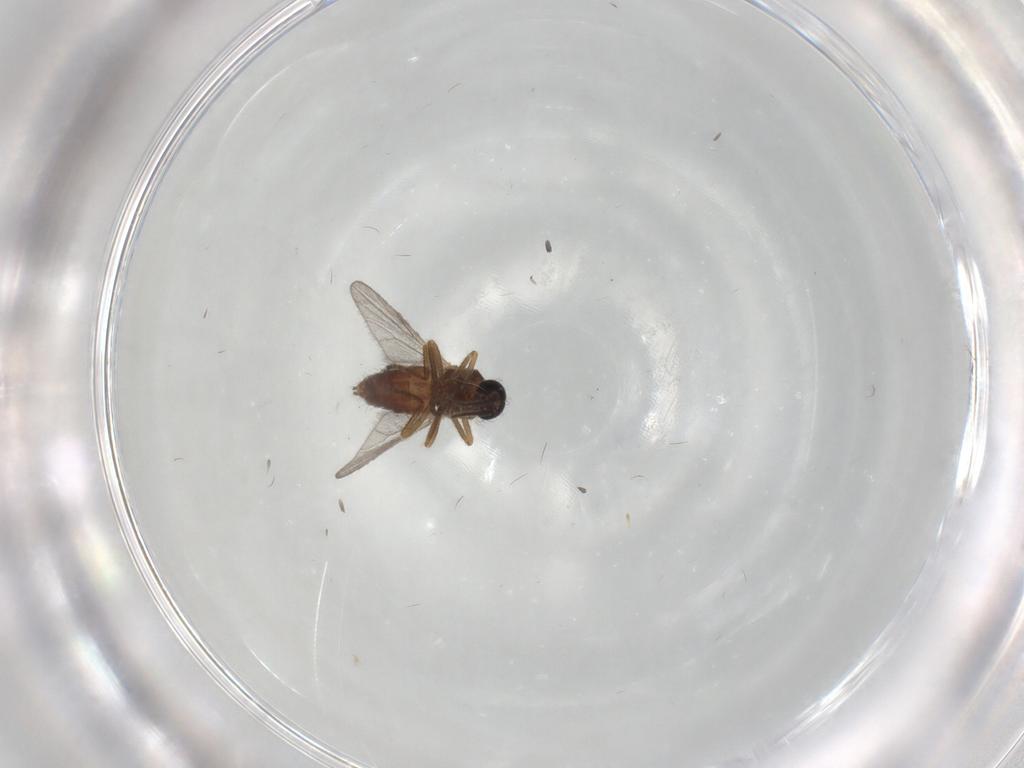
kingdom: Animalia
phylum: Arthropoda
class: Insecta
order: Diptera
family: Ceratopogonidae
